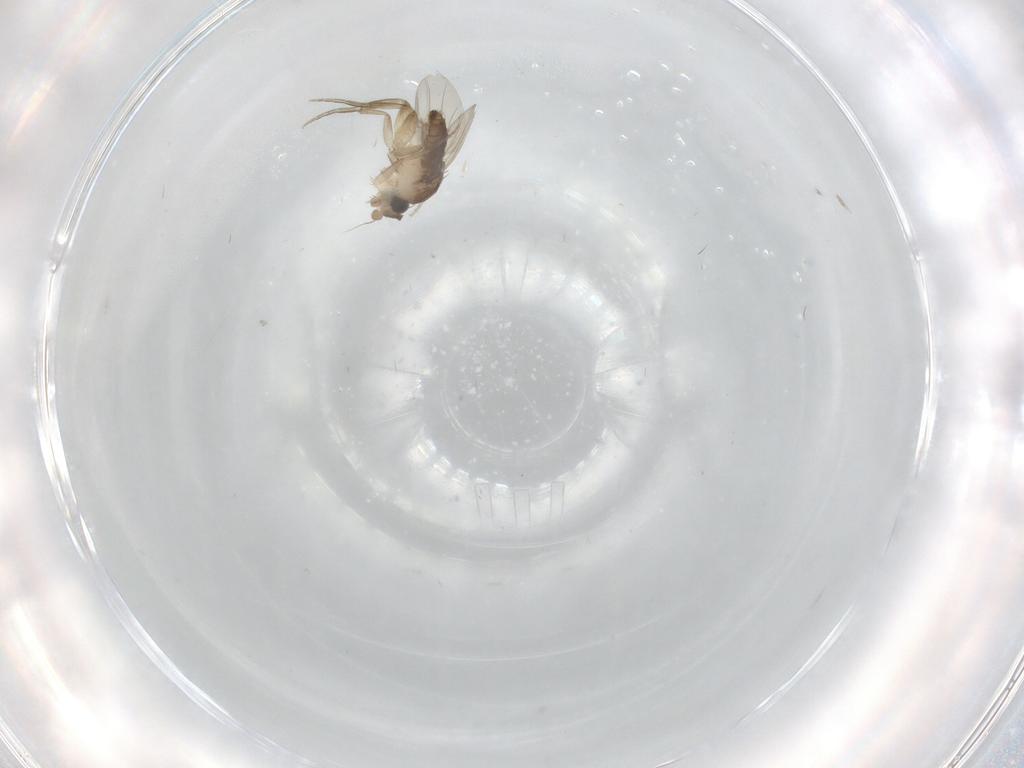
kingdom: Animalia
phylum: Arthropoda
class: Insecta
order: Diptera
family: Phoridae
